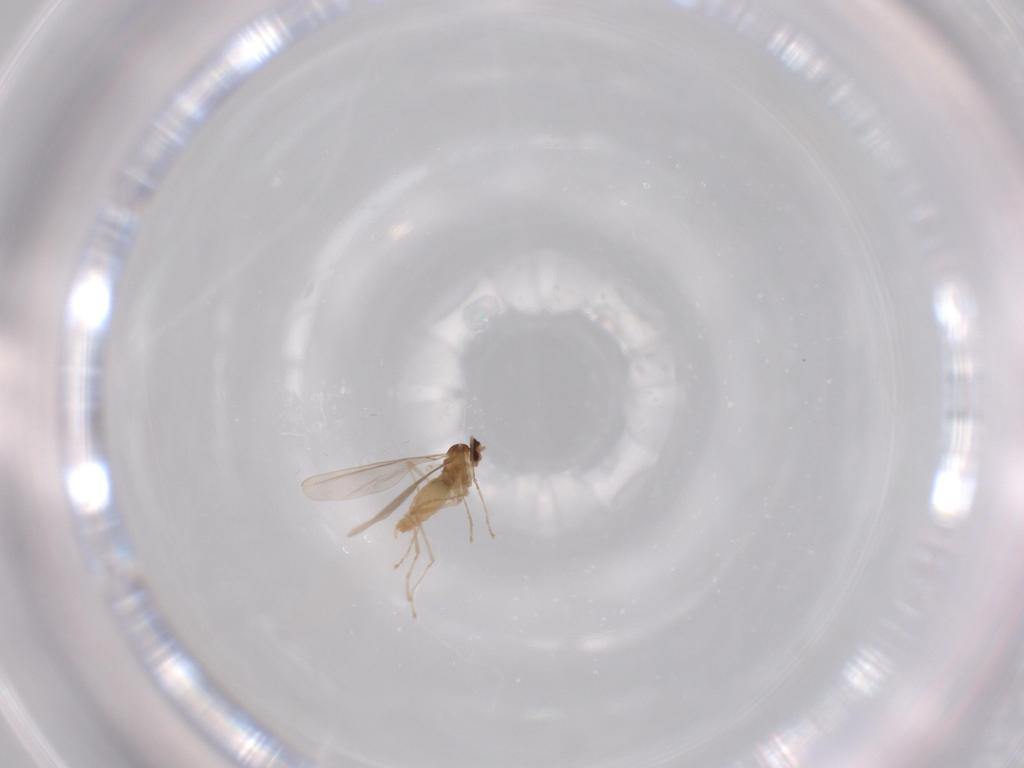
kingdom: Animalia
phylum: Arthropoda
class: Insecta
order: Diptera
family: Cecidomyiidae
